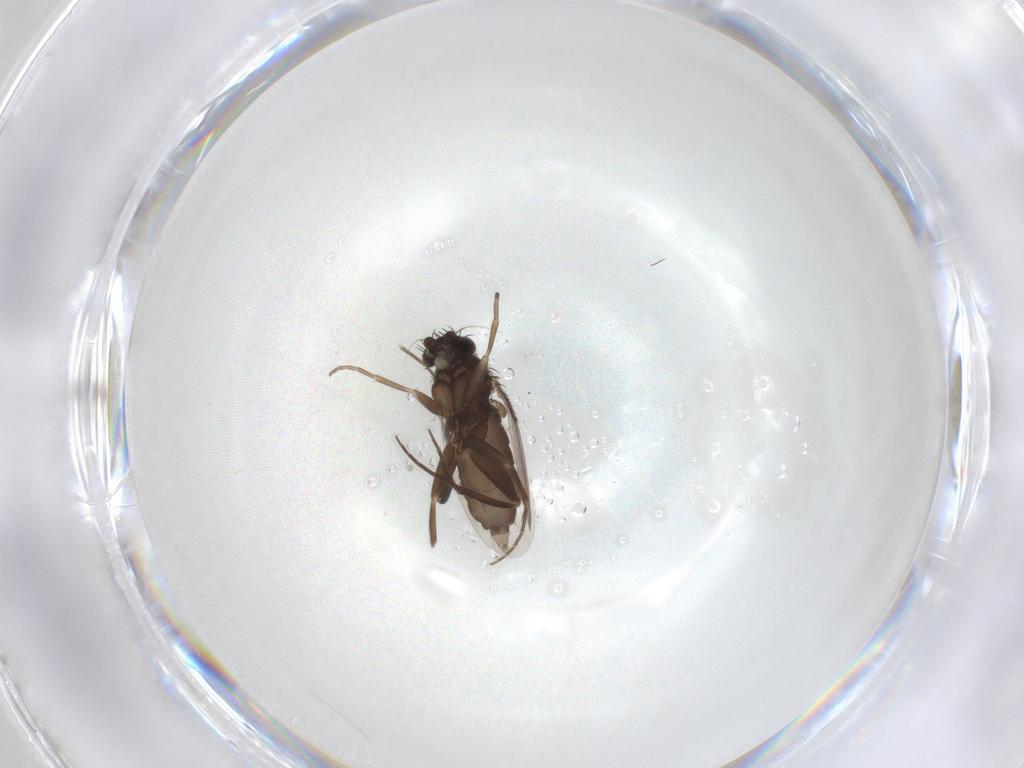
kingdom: Animalia
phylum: Arthropoda
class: Insecta
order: Diptera
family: Phoridae
